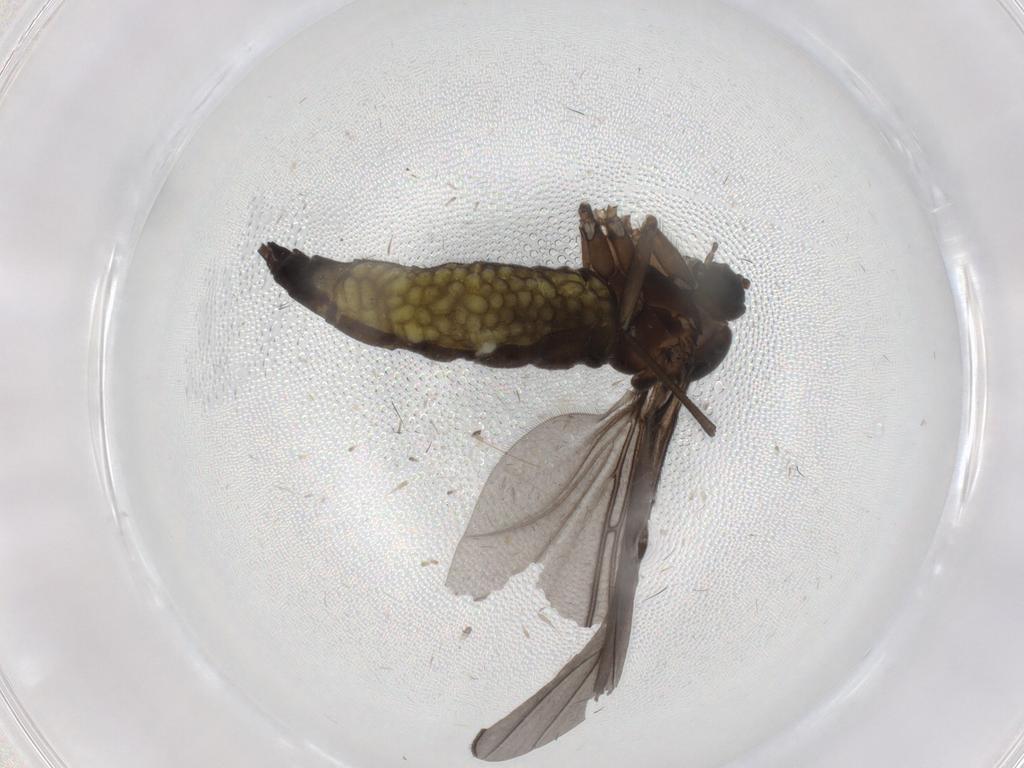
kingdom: Animalia
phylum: Arthropoda
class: Insecta
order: Diptera
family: Sciaridae
